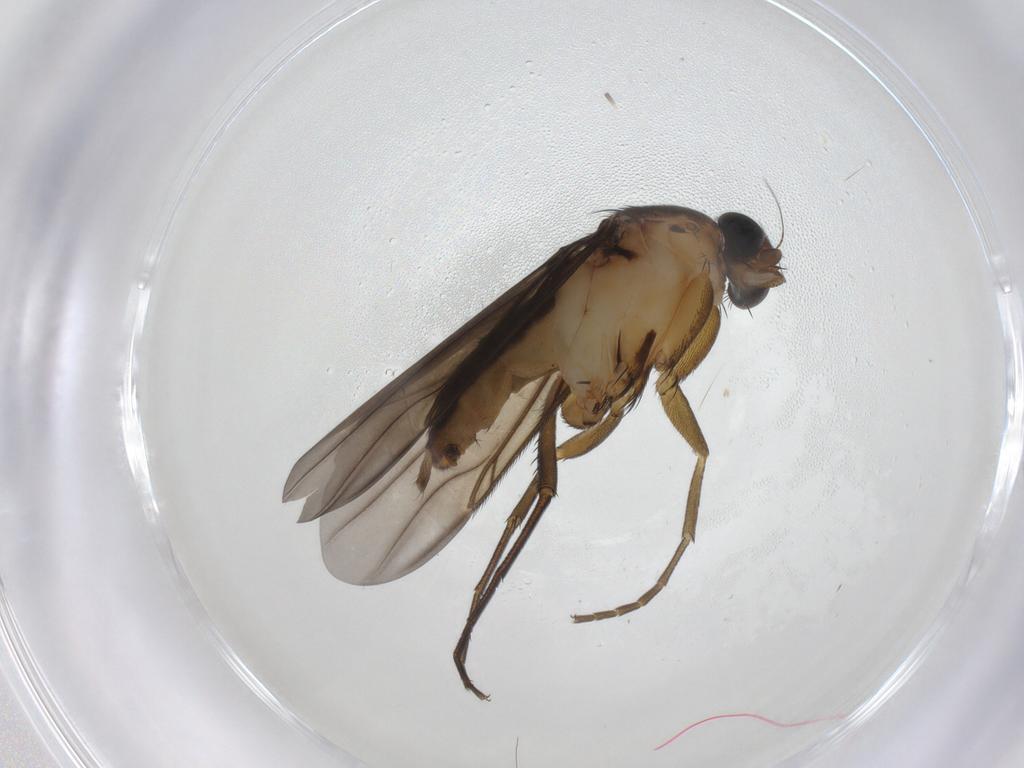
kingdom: Animalia
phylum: Arthropoda
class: Insecta
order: Diptera
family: Phoridae
